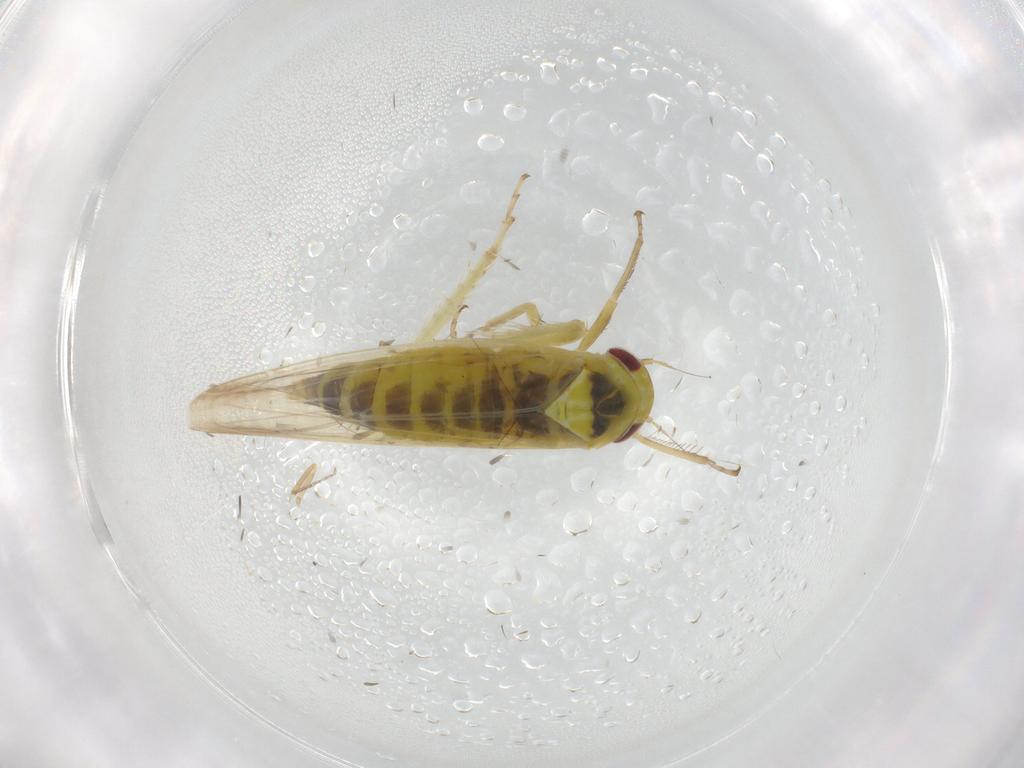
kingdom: Animalia
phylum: Arthropoda
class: Insecta
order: Hemiptera
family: Cicadellidae
